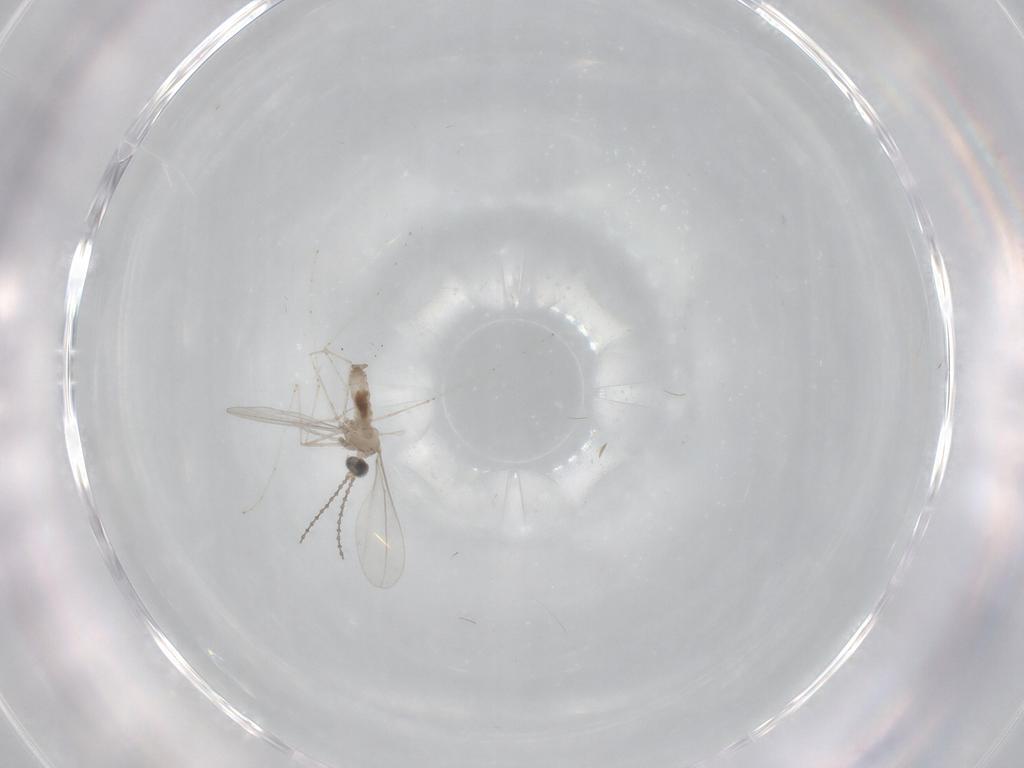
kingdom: Animalia
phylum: Arthropoda
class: Insecta
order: Diptera
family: Cecidomyiidae
